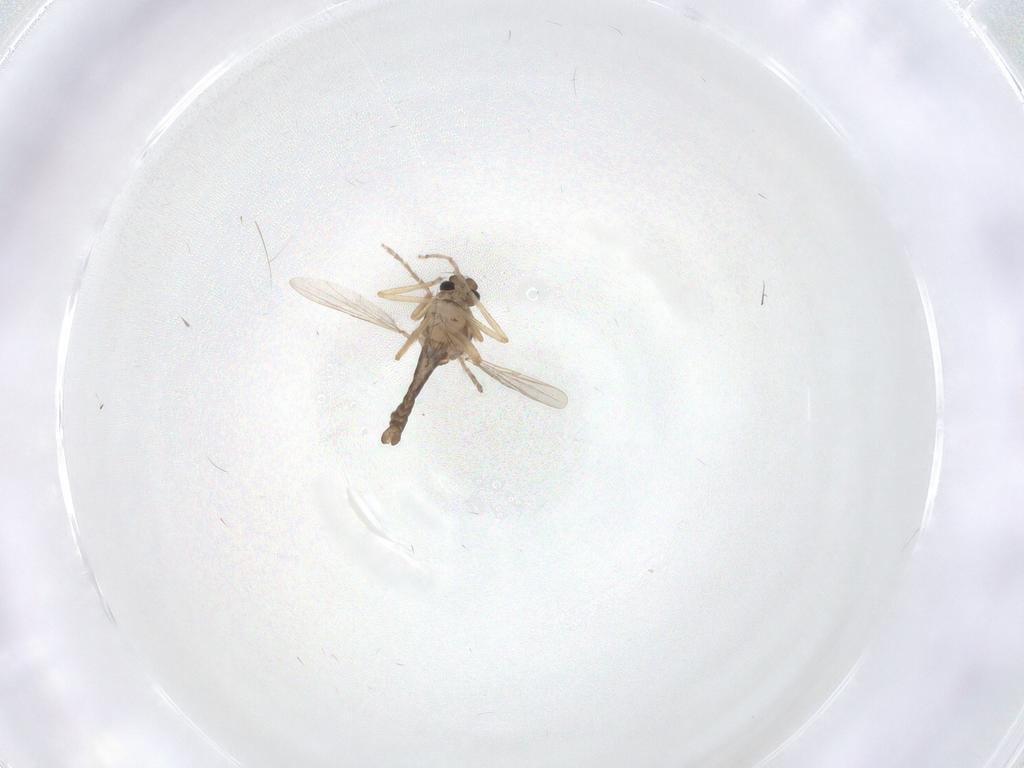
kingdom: Animalia
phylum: Arthropoda
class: Insecta
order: Diptera
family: Ceratopogonidae
